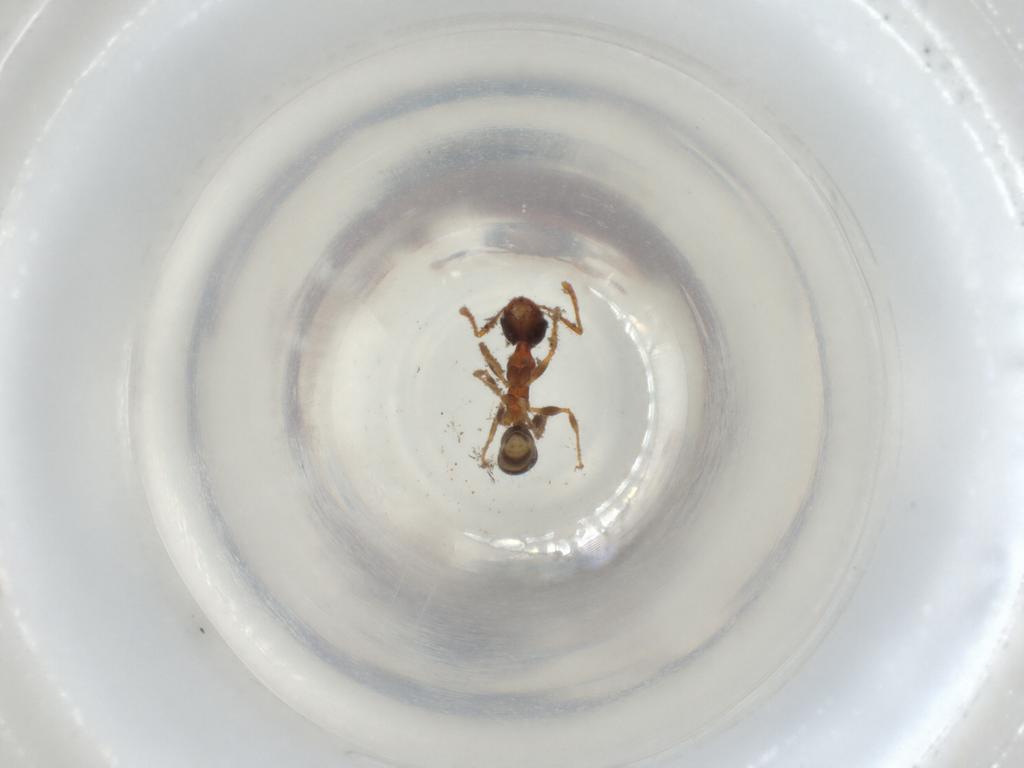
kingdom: Animalia
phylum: Arthropoda
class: Insecta
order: Hymenoptera
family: Formicidae
